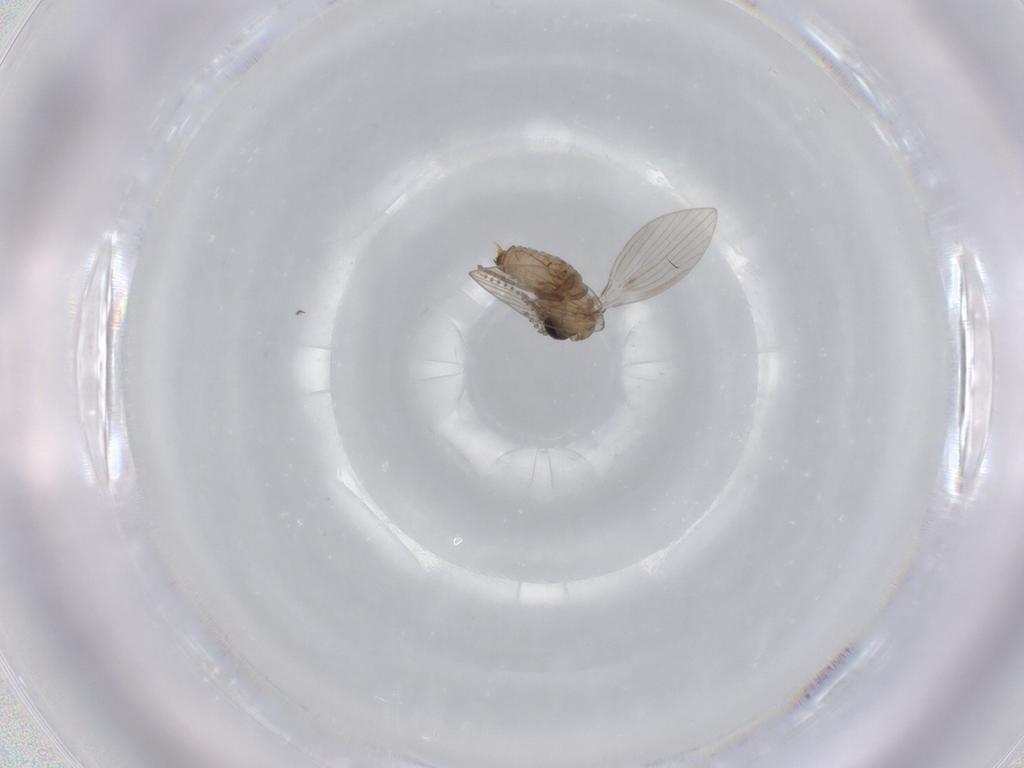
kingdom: Animalia
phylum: Arthropoda
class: Insecta
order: Diptera
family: Psychodidae
